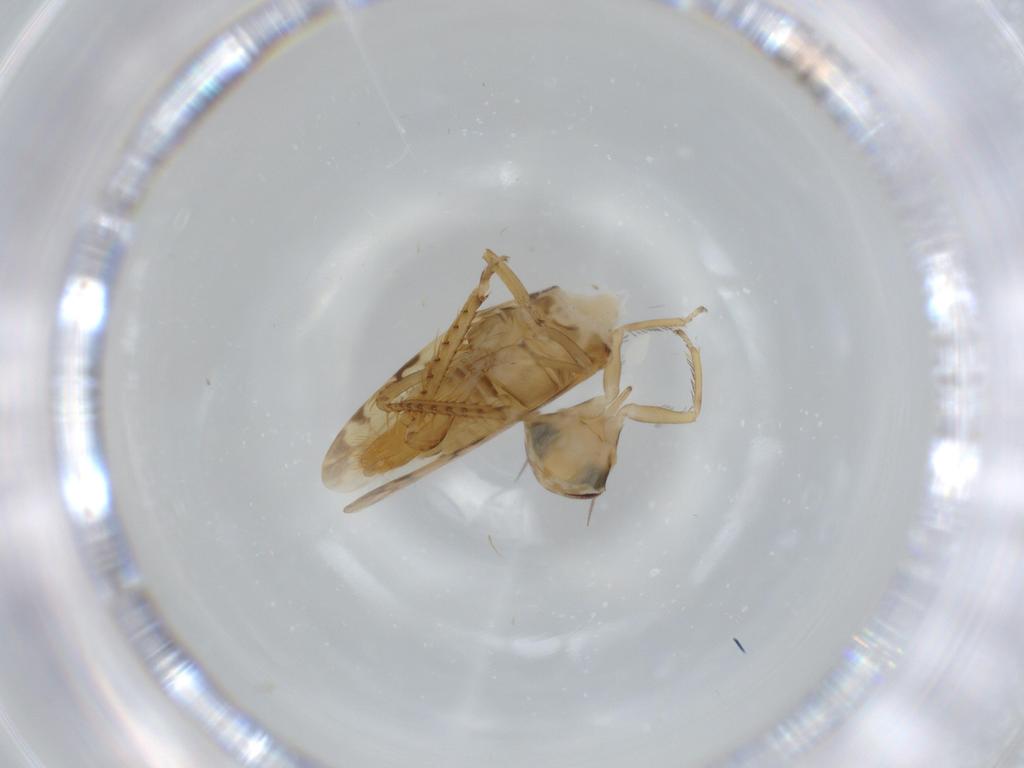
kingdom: Animalia
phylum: Arthropoda
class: Insecta
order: Hemiptera
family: Cicadellidae
